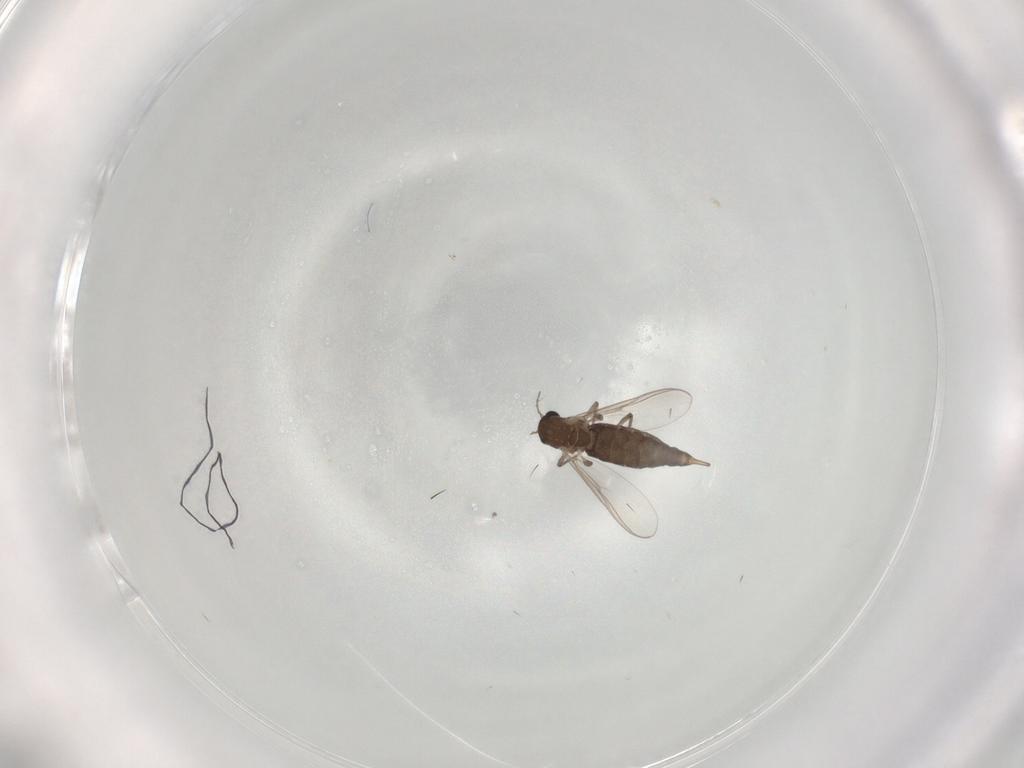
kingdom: Animalia
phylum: Arthropoda
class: Insecta
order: Diptera
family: Chironomidae
